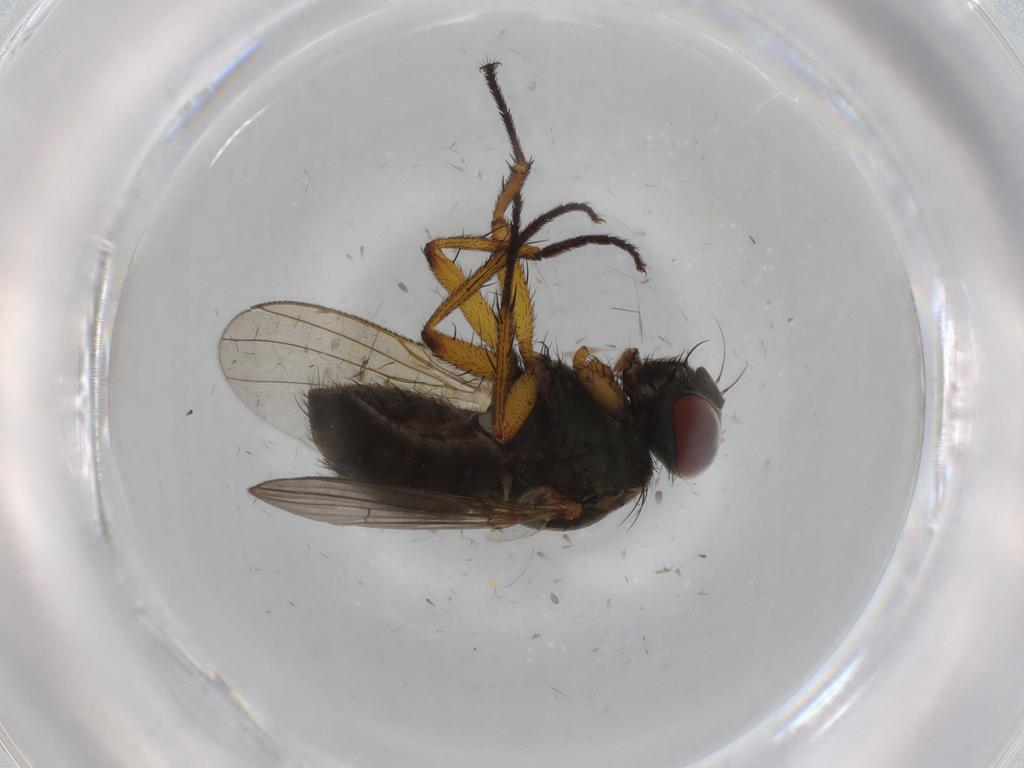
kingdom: Animalia
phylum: Arthropoda
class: Insecta
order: Diptera
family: Muscidae
